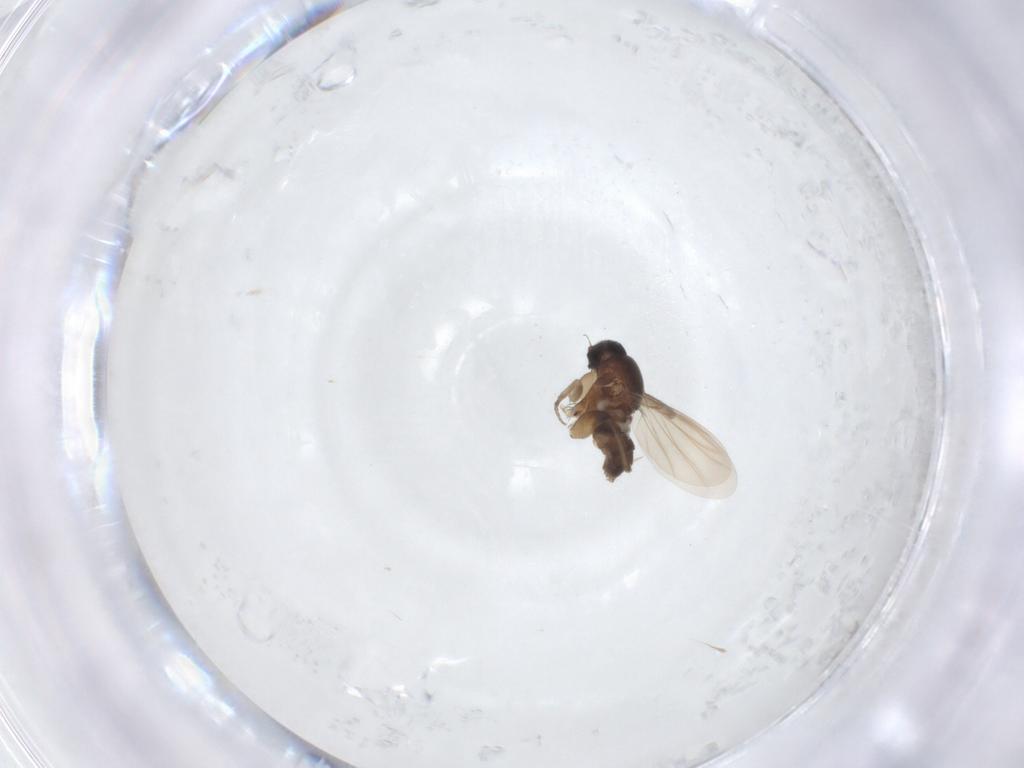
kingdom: Animalia
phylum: Arthropoda
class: Insecta
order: Diptera
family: Phoridae
